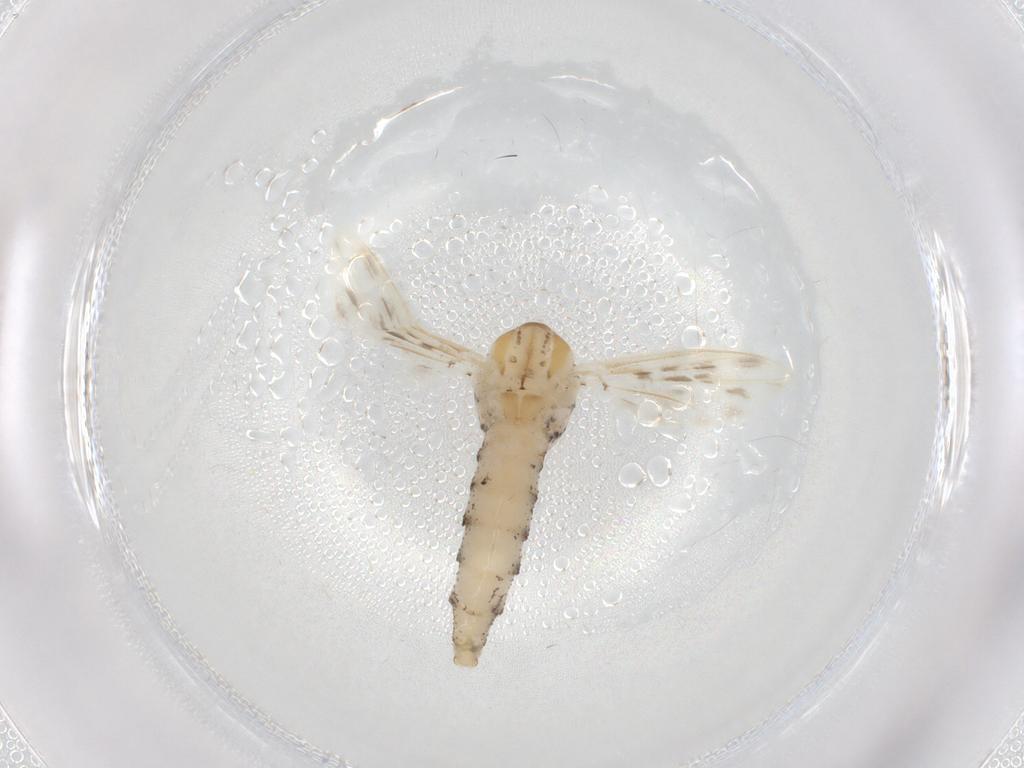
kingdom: Animalia
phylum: Arthropoda
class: Insecta
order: Diptera
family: Chaoboridae
